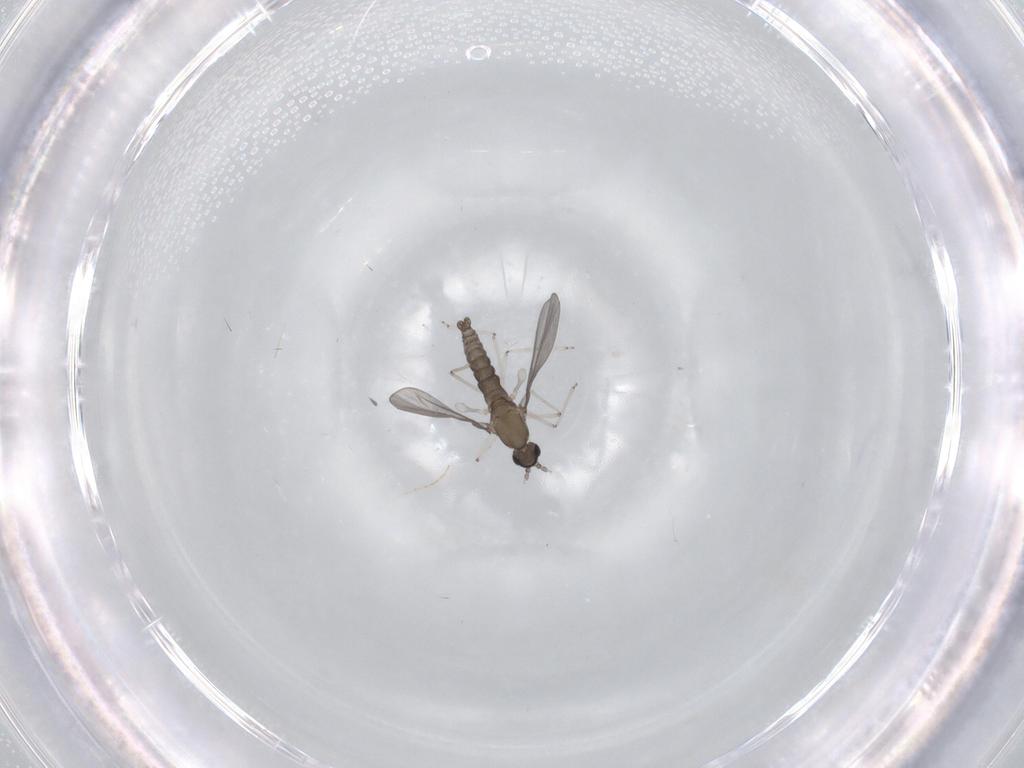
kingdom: Animalia
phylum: Arthropoda
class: Insecta
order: Diptera
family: Cecidomyiidae
